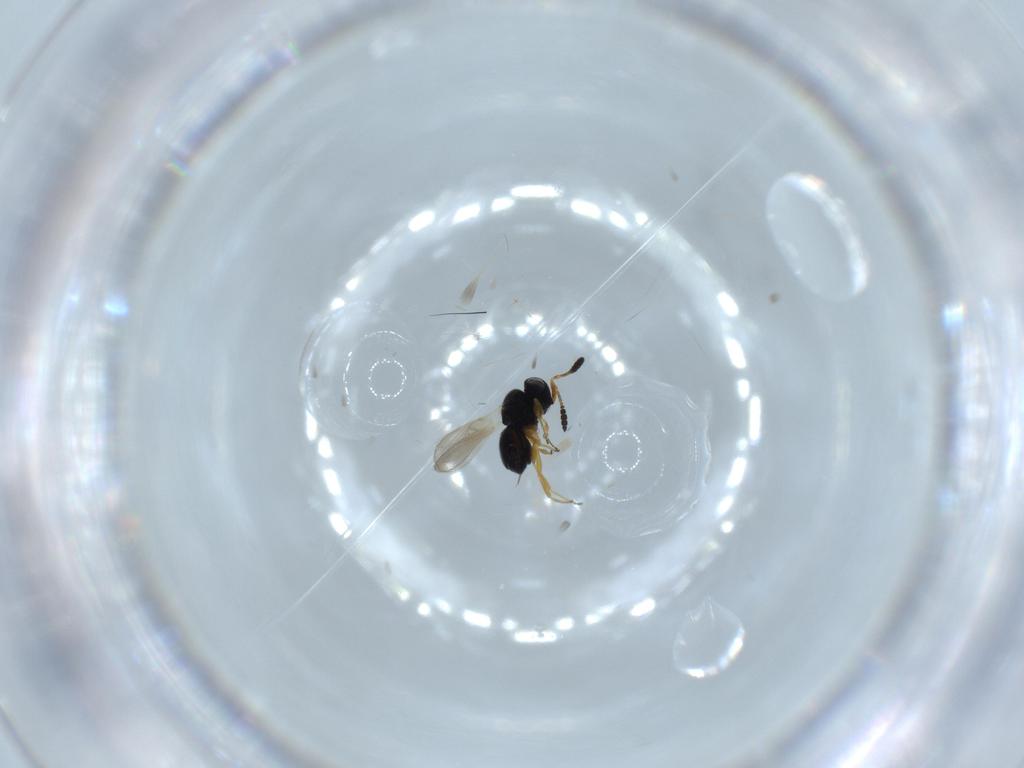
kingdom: Animalia
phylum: Arthropoda
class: Insecta
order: Hymenoptera
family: Scelionidae
